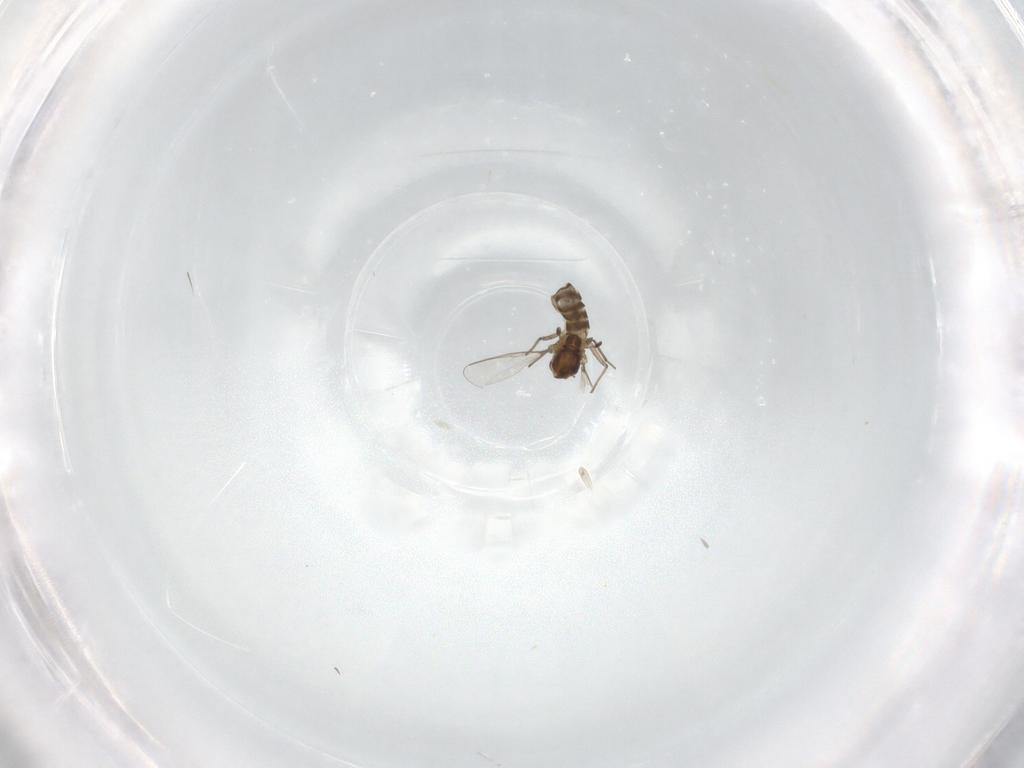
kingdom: Animalia
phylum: Arthropoda
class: Insecta
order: Diptera
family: Chironomidae
